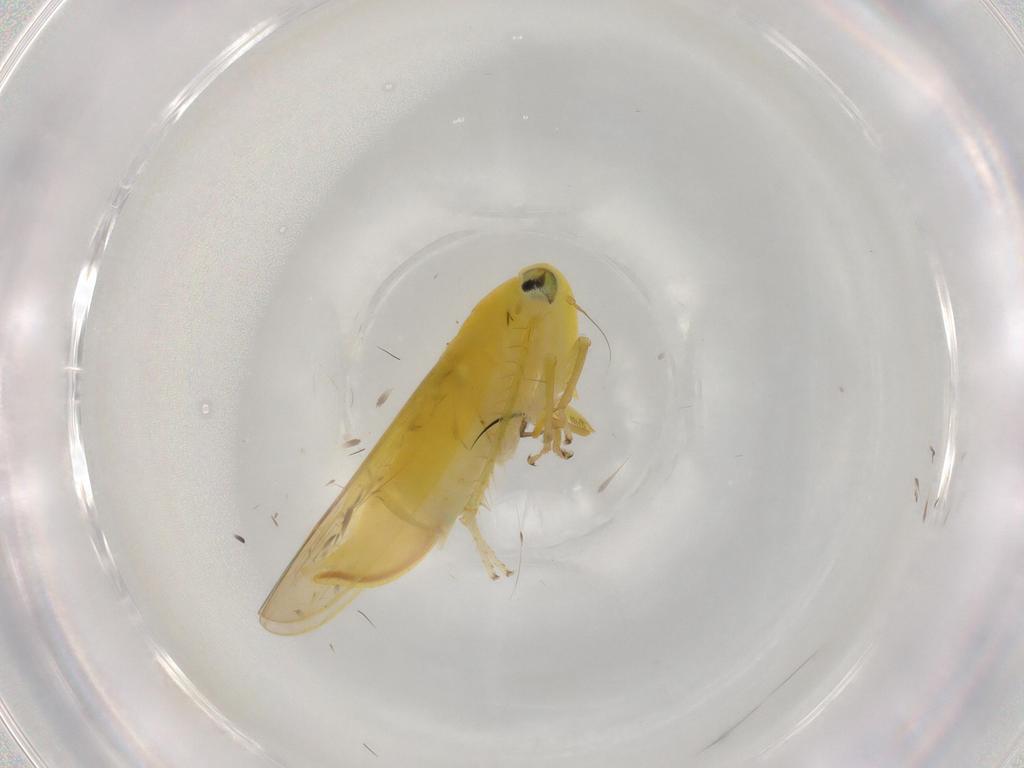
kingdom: Animalia
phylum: Arthropoda
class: Insecta
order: Hemiptera
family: Cicadellidae
